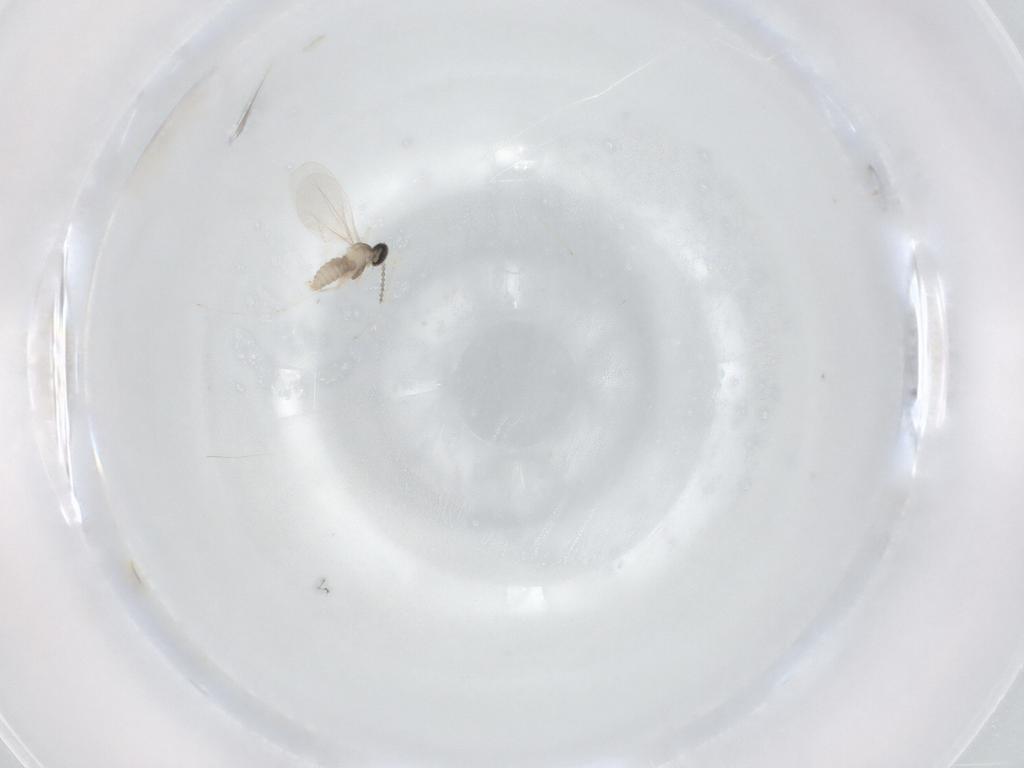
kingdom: Animalia
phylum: Arthropoda
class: Insecta
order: Diptera
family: Cecidomyiidae
